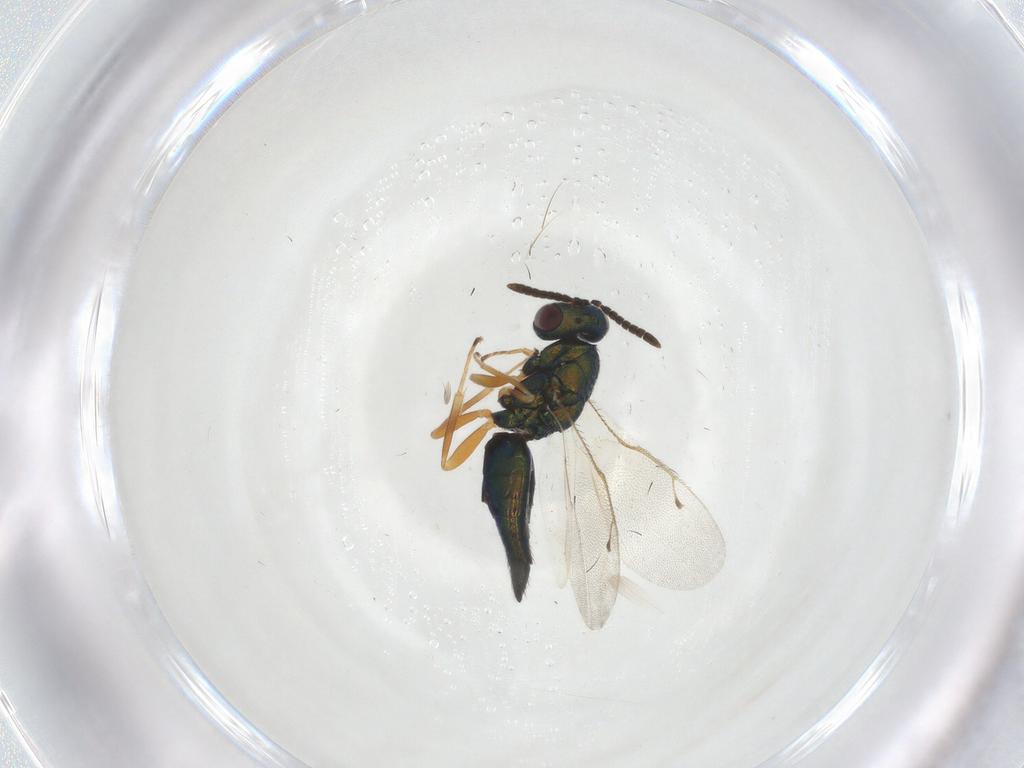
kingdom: Animalia
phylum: Arthropoda
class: Insecta
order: Hymenoptera
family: Pteromalidae
